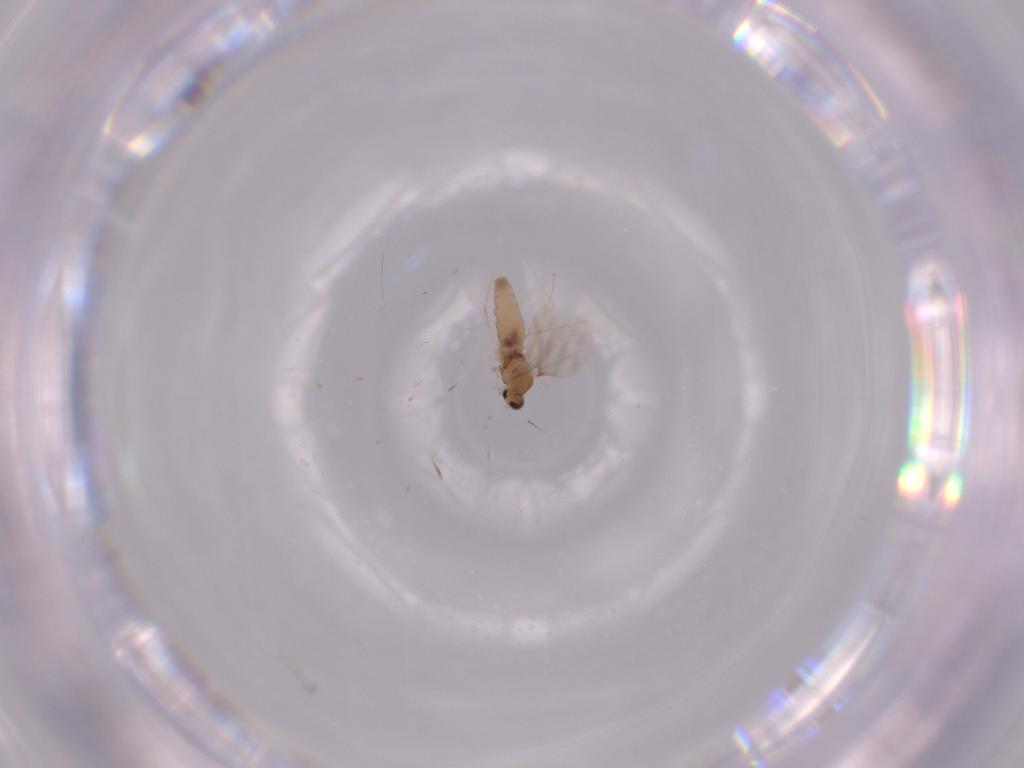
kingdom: Animalia
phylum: Arthropoda
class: Insecta
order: Diptera
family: Cecidomyiidae
